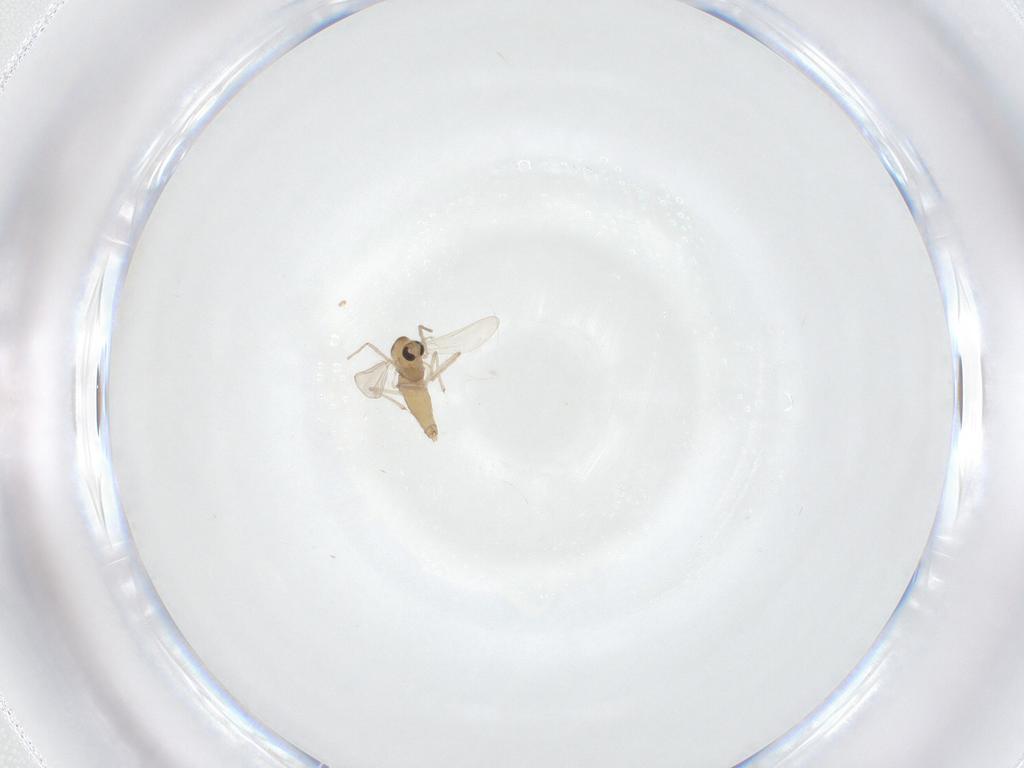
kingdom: Animalia
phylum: Arthropoda
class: Insecta
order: Diptera
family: Chironomidae
